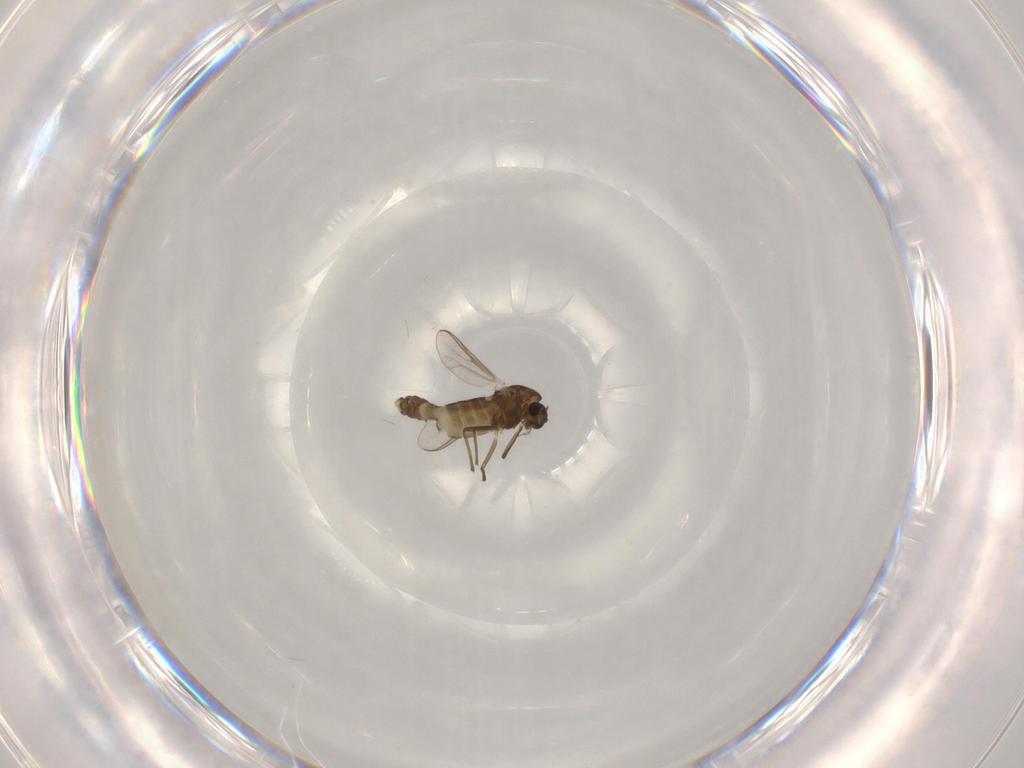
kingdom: Animalia
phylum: Arthropoda
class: Insecta
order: Diptera
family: Chironomidae
